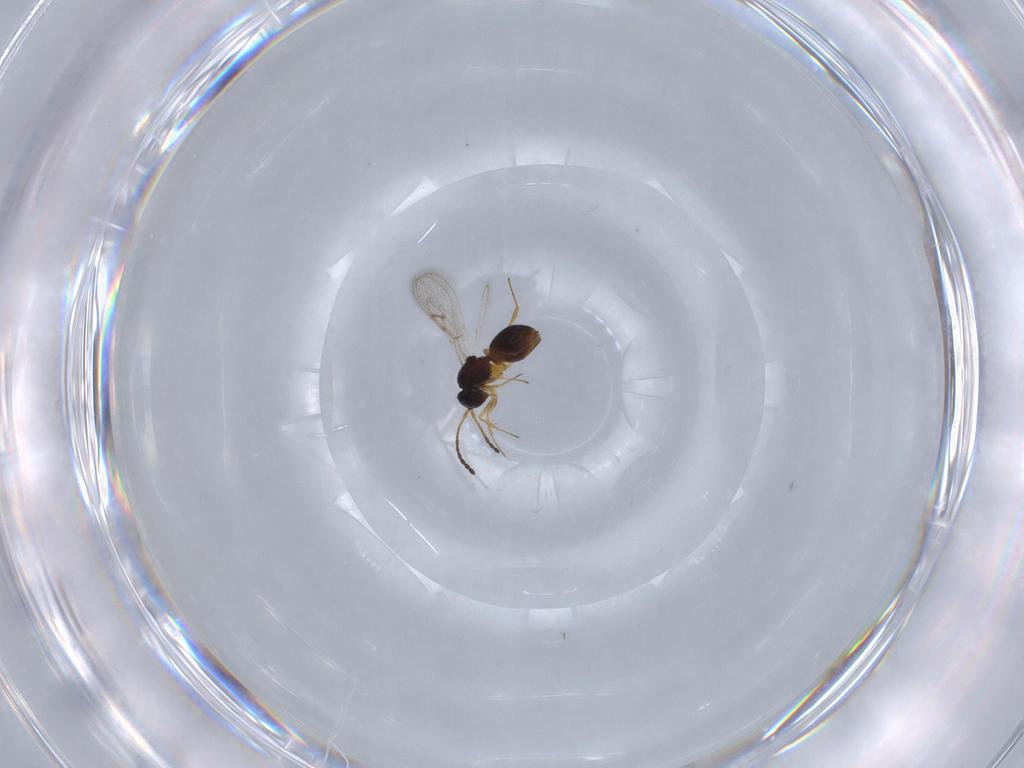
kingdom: Animalia
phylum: Arthropoda
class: Insecta
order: Hymenoptera
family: Figitidae
